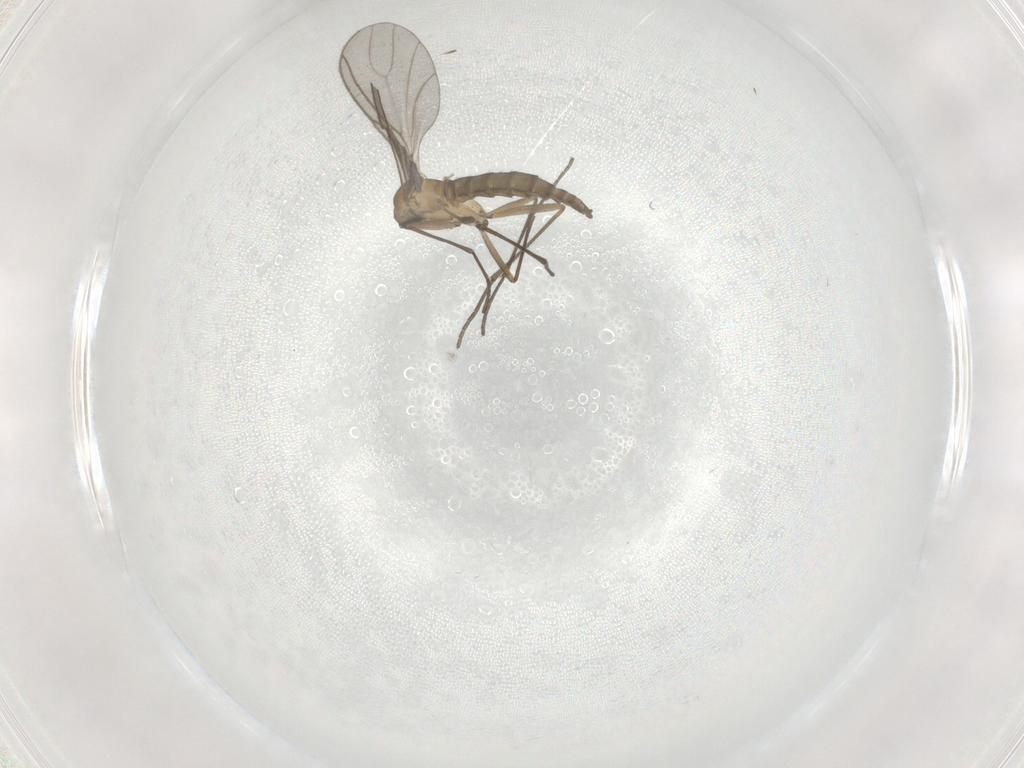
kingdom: Animalia
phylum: Arthropoda
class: Insecta
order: Diptera
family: Sciaridae
